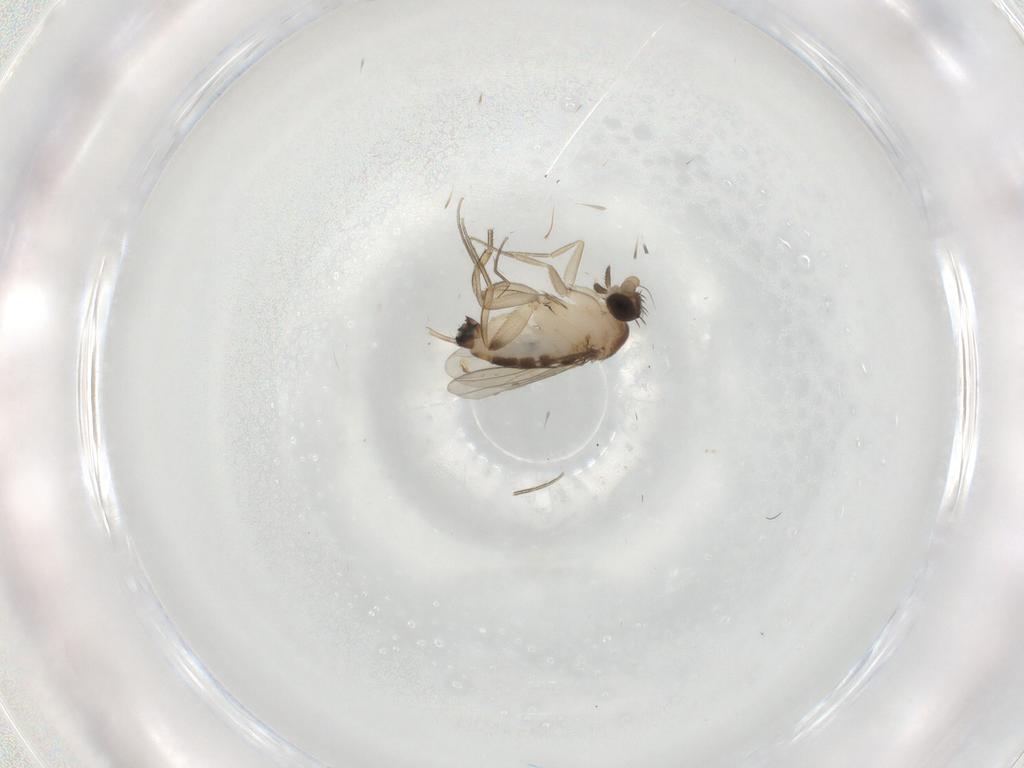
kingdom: Animalia
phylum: Arthropoda
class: Insecta
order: Diptera
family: Phoridae
